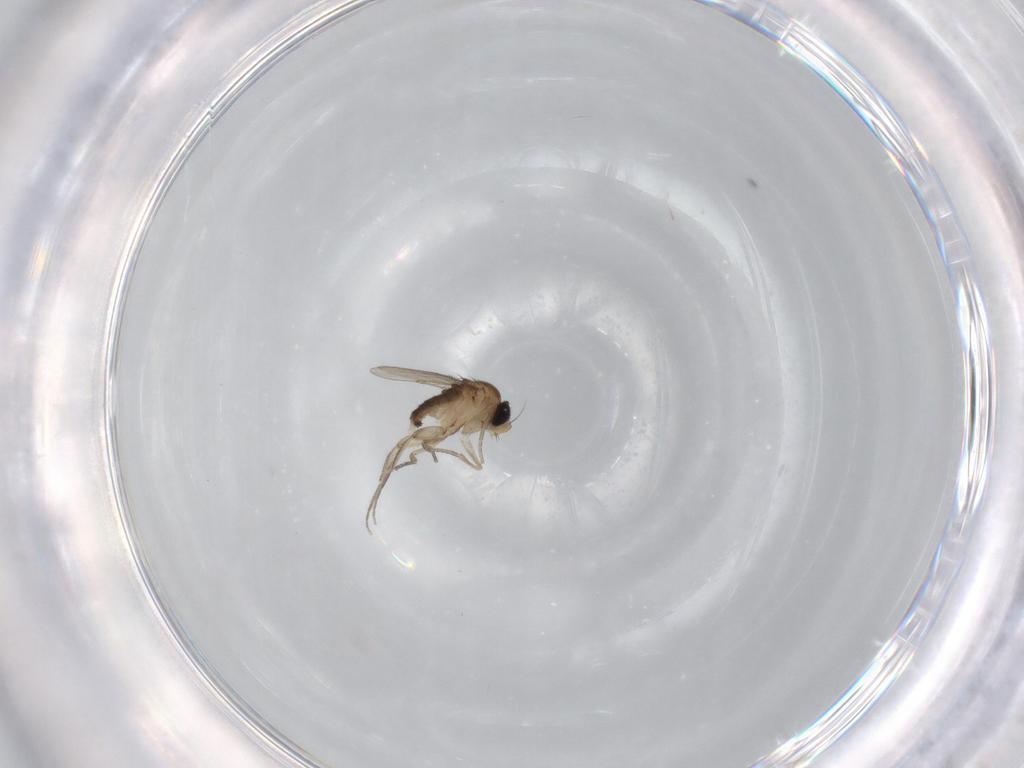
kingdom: Animalia
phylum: Arthropoda
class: Insecta
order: Diptera
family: Phoridae
